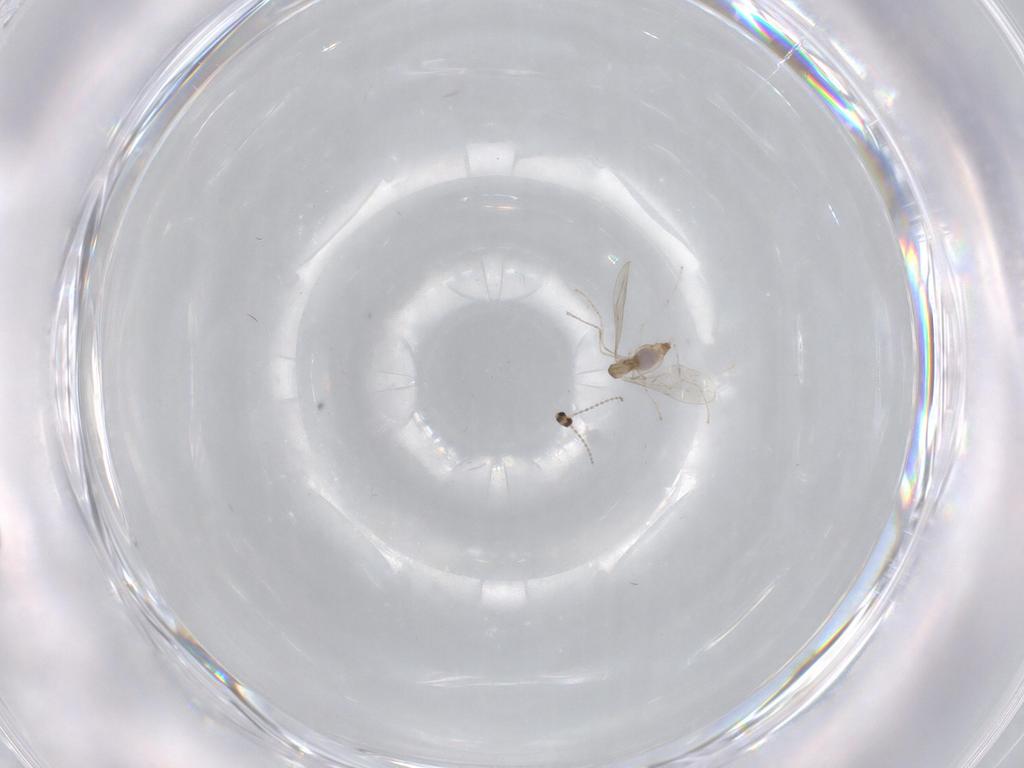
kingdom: Animalia
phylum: Arthropoda
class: Insecta
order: Diptera
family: Cecidomyiidae
